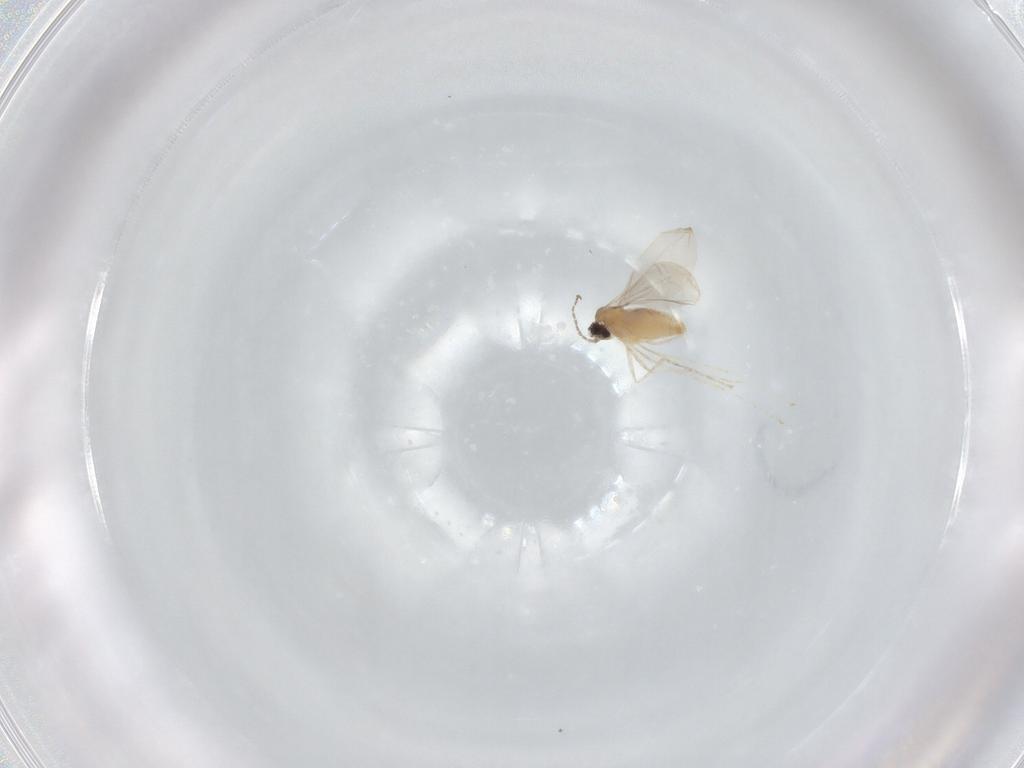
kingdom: Animalia
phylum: Arthropoda
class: Insecta
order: Diptera
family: Cecidomyiidae
